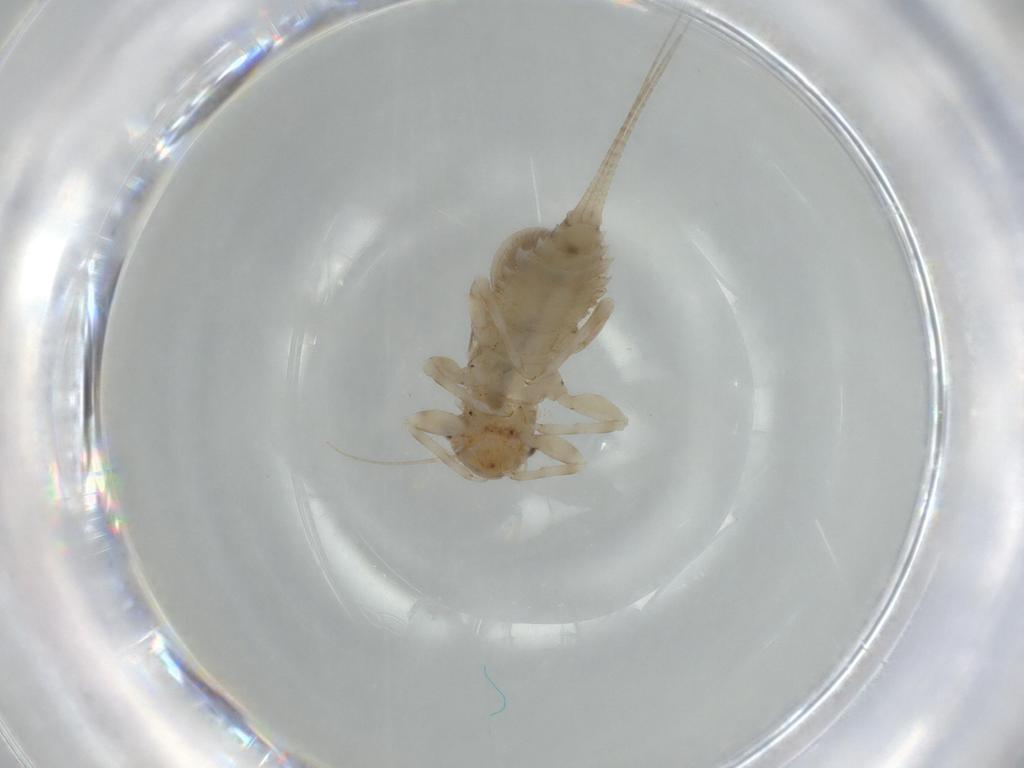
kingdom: Animalia
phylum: Arthropoda
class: Insecta
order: Ephemeroptera
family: Caenidae
